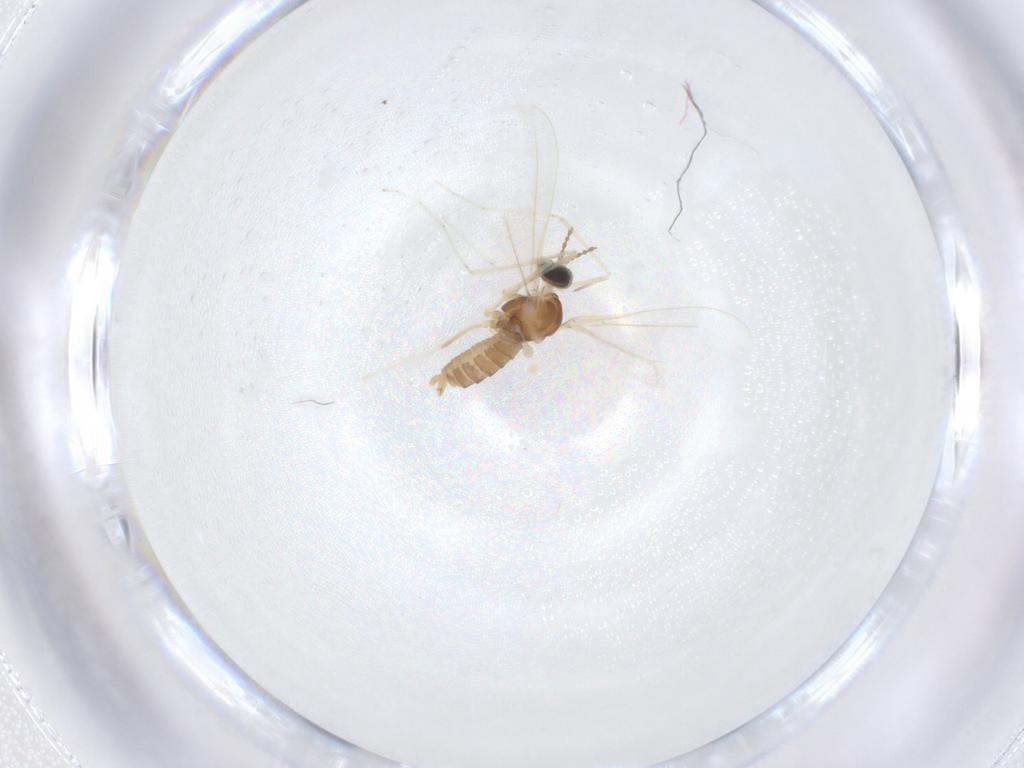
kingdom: Animalia
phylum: Arthropoda
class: Insecta
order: Diptera
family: Cecidomyiidae
